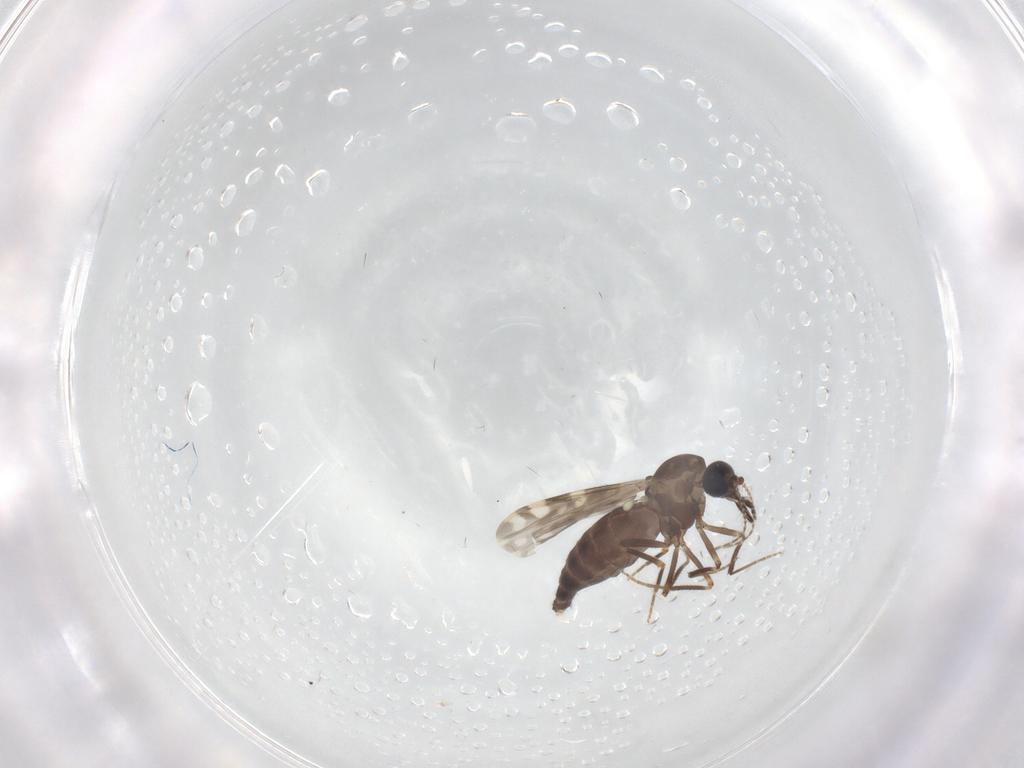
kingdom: Animalia
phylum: Arthropoda
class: Insecta
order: Diptera
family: Ceratopogonidae
